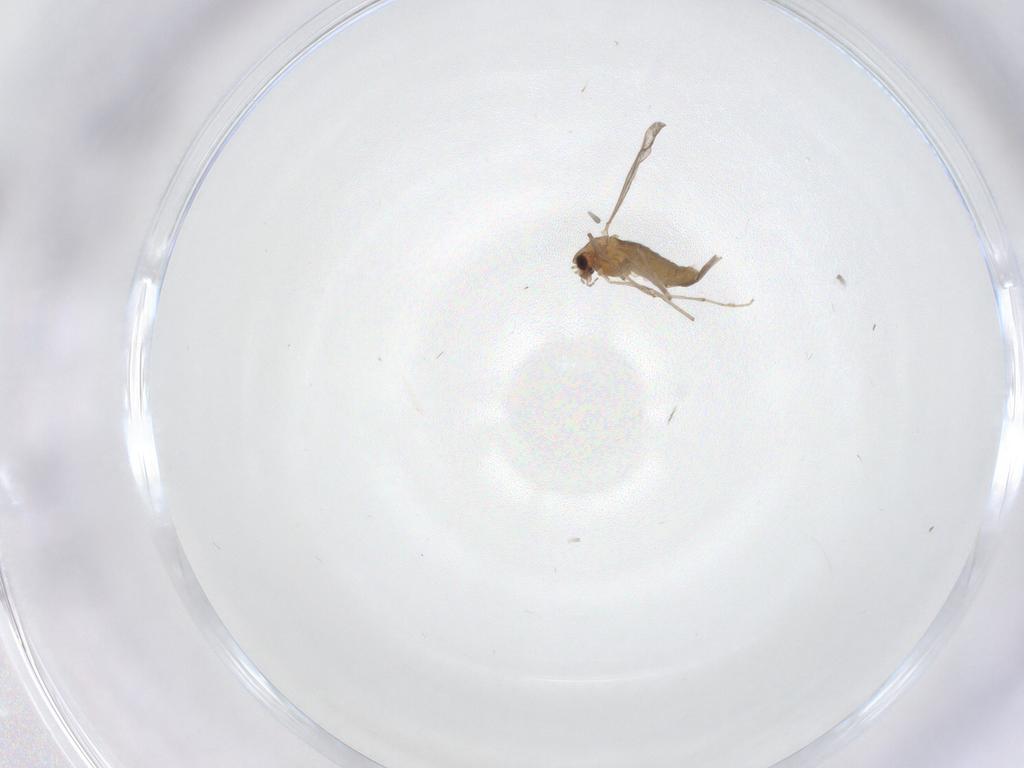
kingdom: Animalia
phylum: Arthropoda
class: Insecta
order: Diptera
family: Chironomidae
